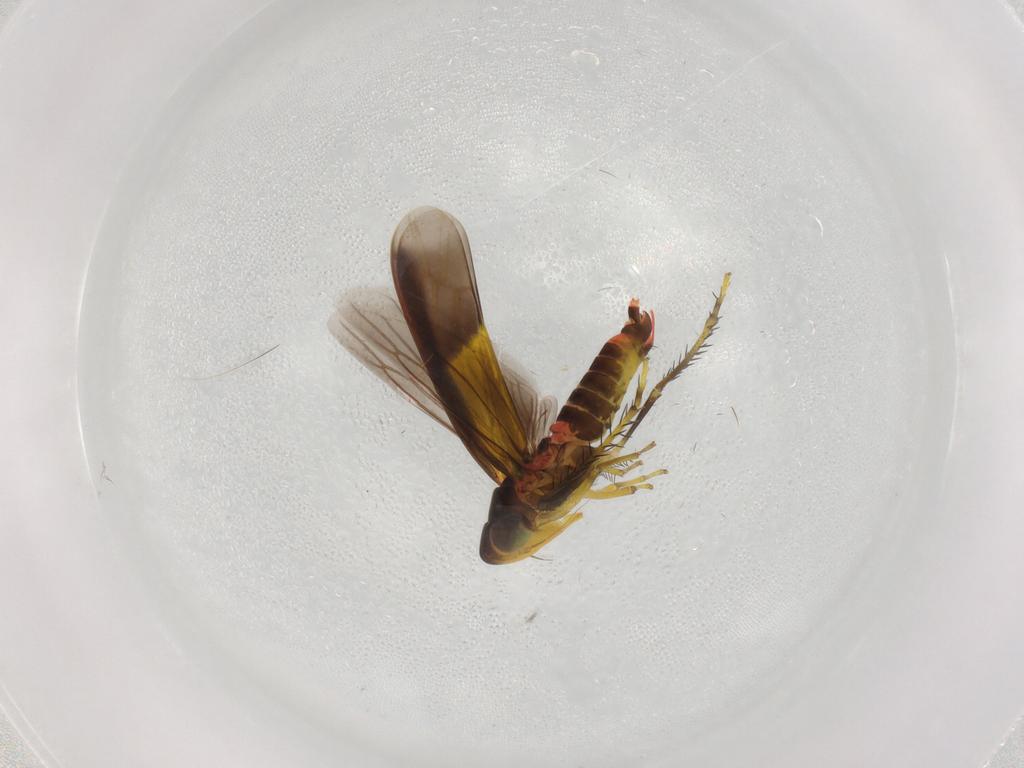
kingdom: Animalia
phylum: Arthropoda
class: Insecta
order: Hemiptera
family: Cicadellidae
